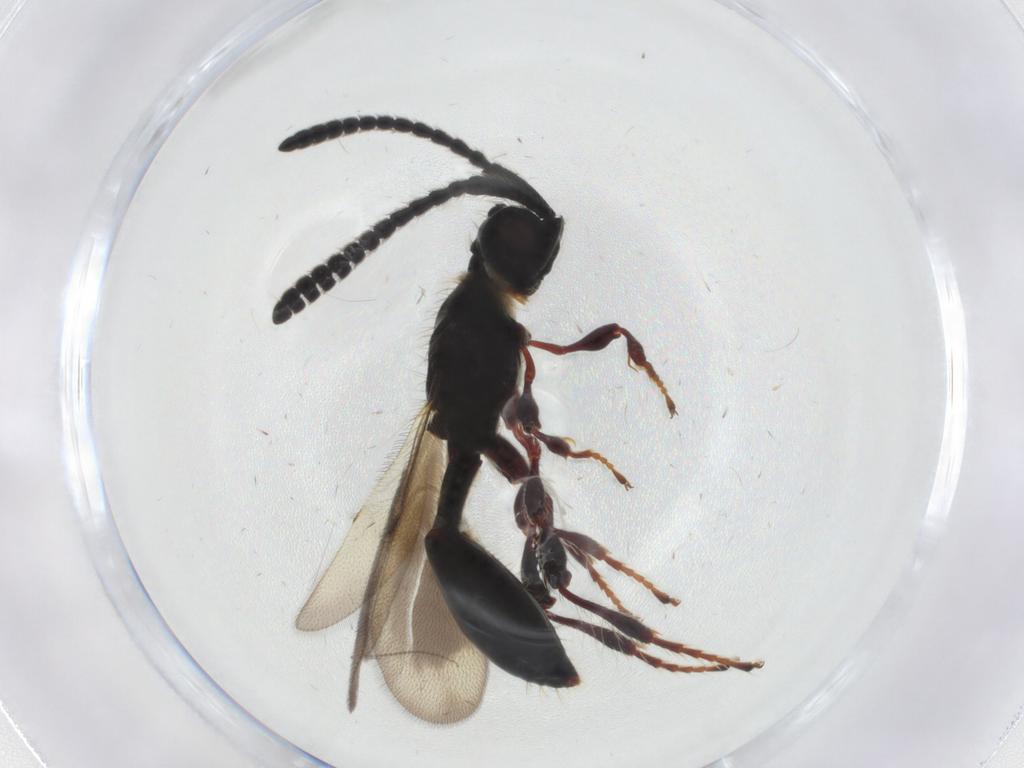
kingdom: Animalia
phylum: Arthropoda
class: Insecta
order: Hymenoptera
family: Diapriidae
